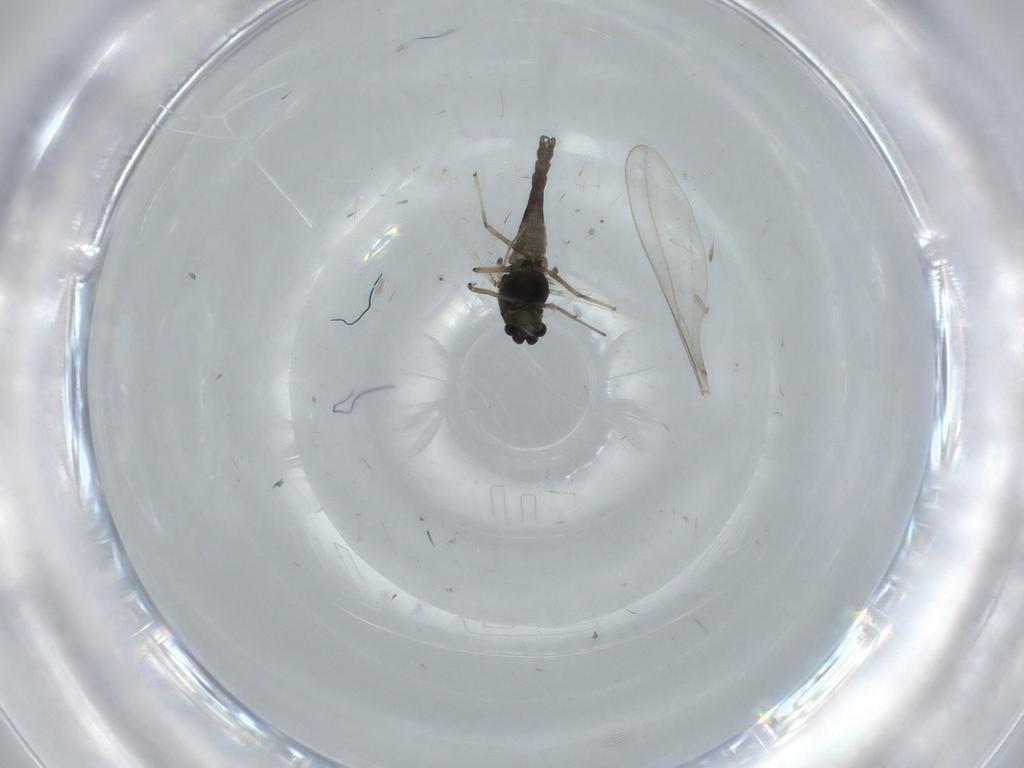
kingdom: Animalia
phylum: Arthropoda
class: Insecta
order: Diptera
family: Chironomidae
